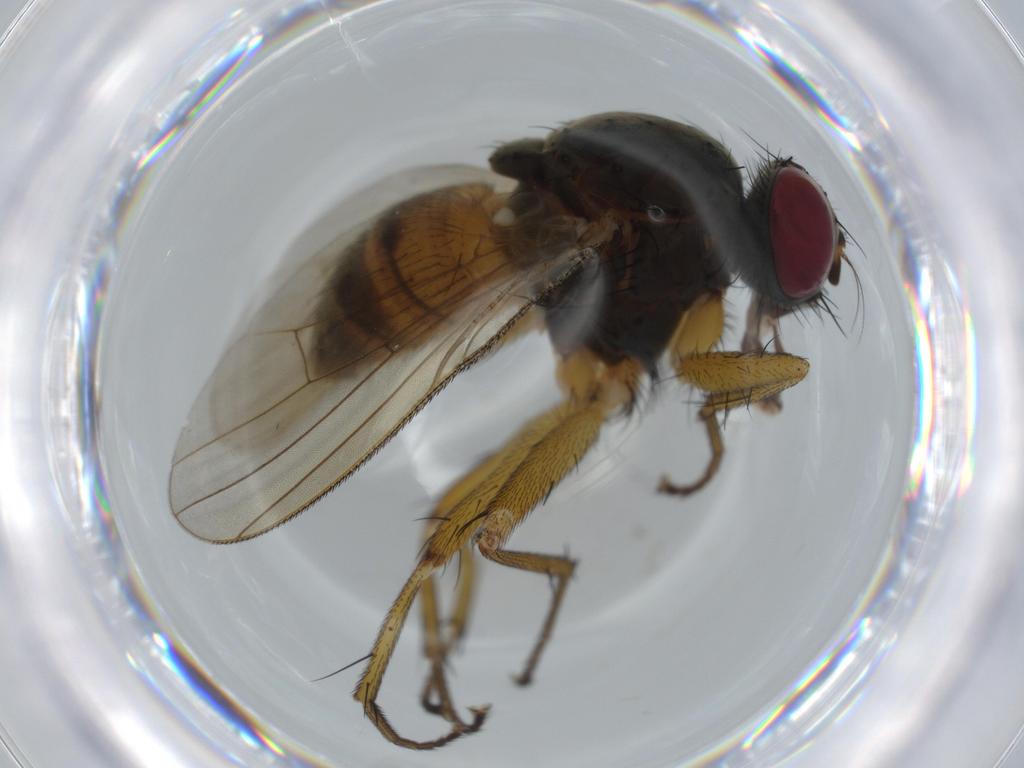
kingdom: Animalia
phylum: Arthropoda
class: Insecta
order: Diptera
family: Muscidae
